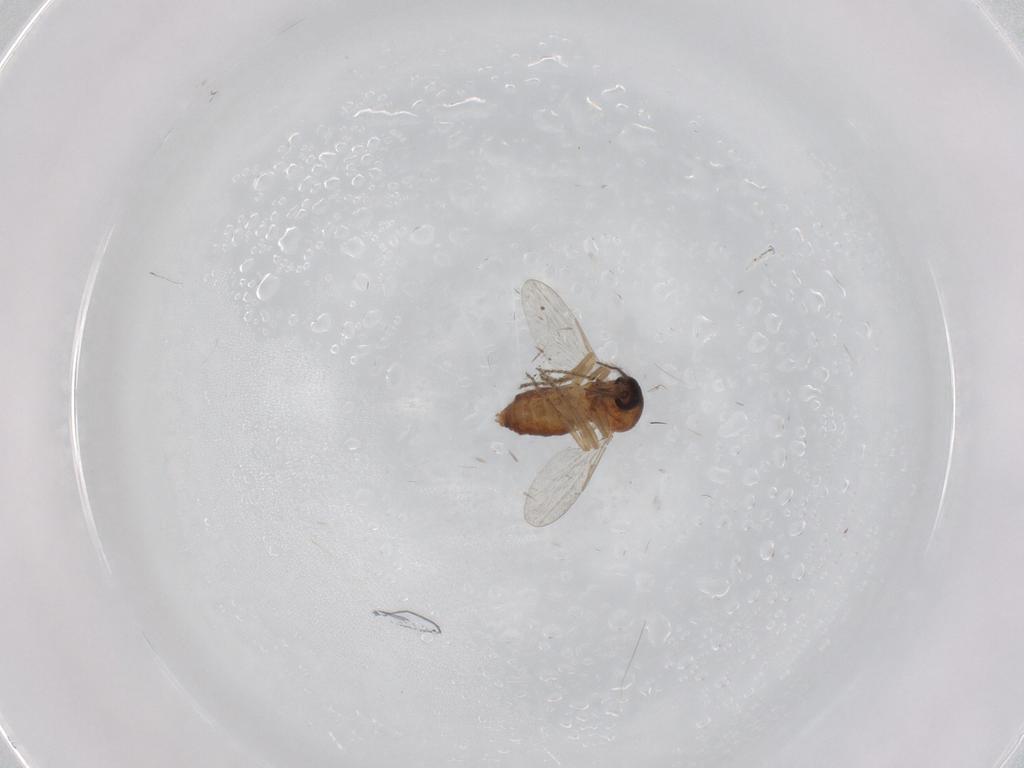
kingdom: Animalia
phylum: Arthropoda
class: Insecta
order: Diptera
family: Ceratopogonidae
